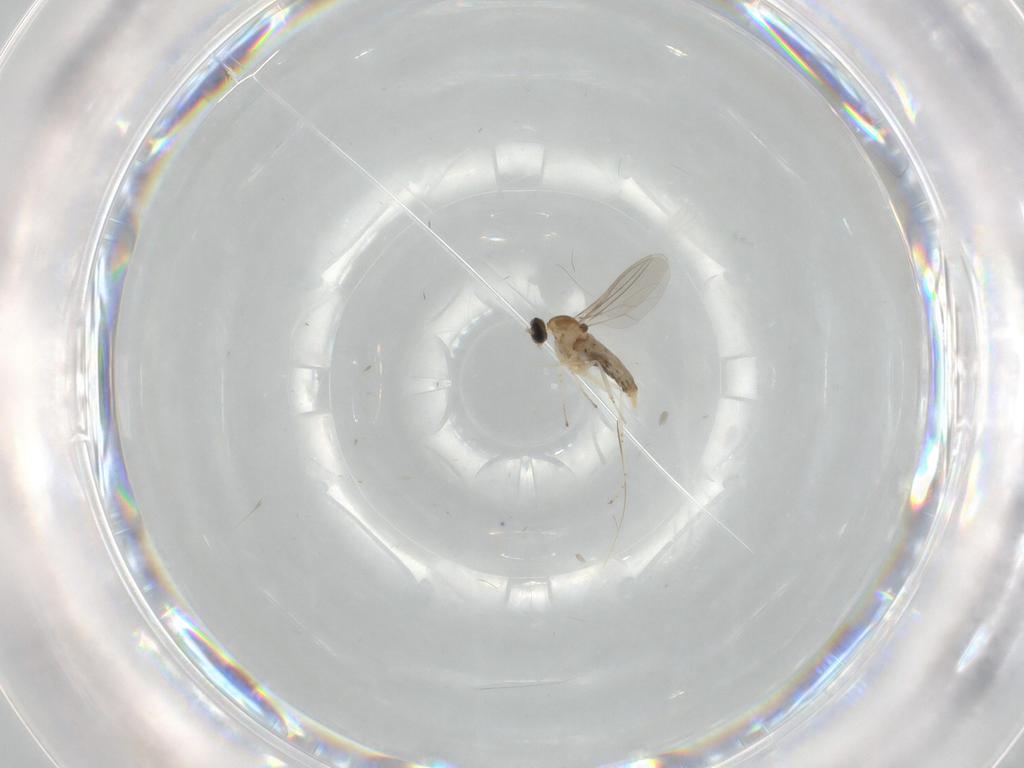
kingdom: Animalia
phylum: Arthropoda
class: Insecta
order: Diptera
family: Cecidomyiidae
